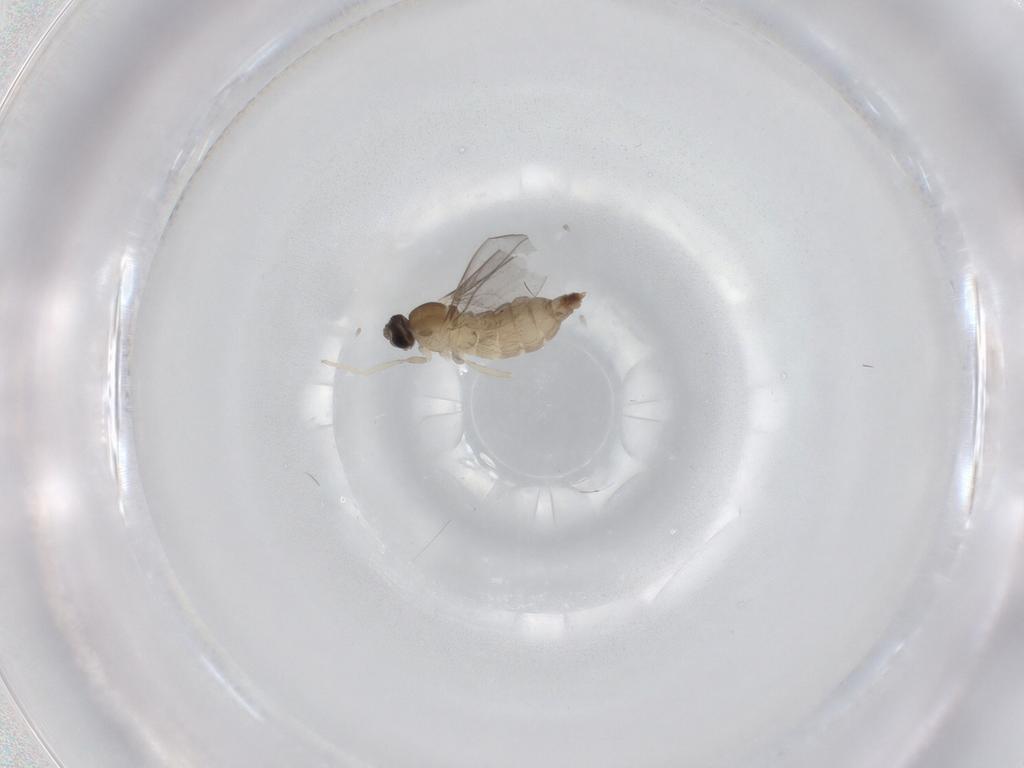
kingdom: Animalia
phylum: Arthropoda
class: Insecta
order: Diptera
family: Cecidomyiidae
